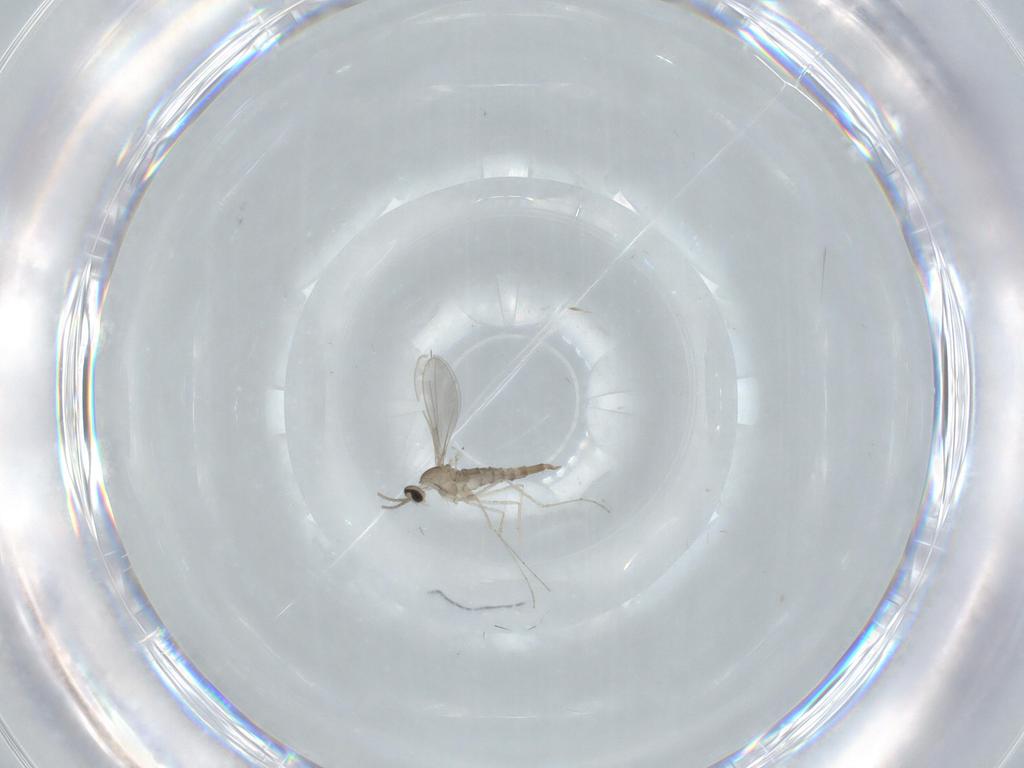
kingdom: Animalia
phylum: Arthropoda
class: Insecta
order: Diptera
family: Cecidomyiidae
